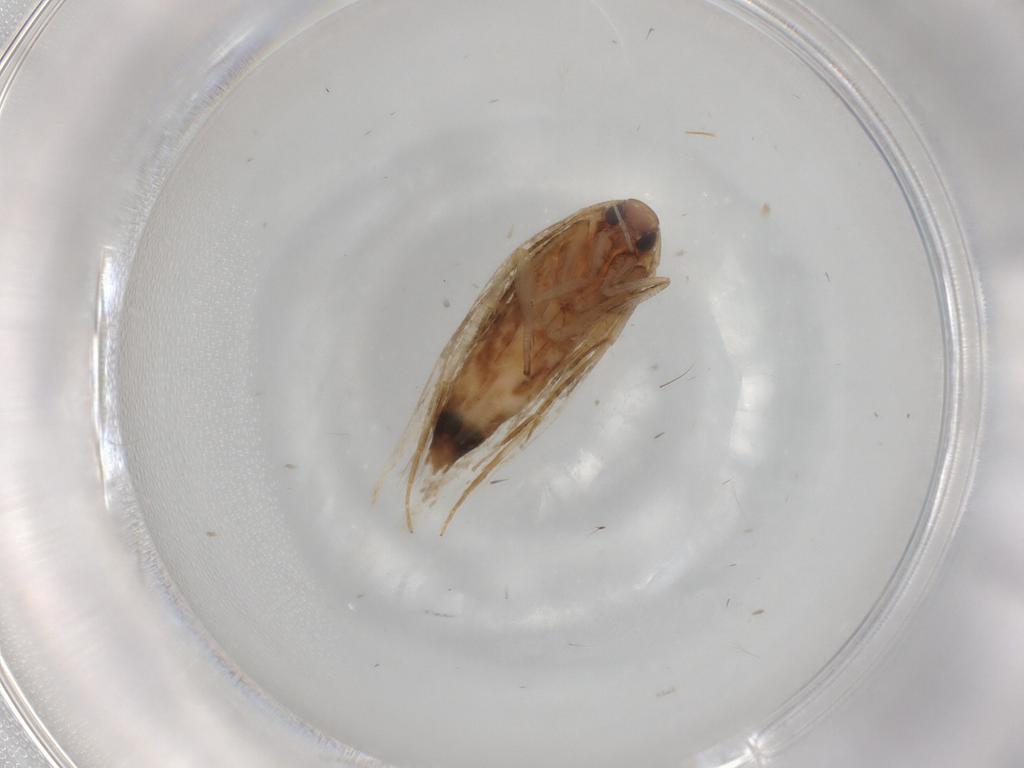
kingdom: Animalia
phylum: Arthropoda
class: Insecta
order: Lepidoptera
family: Cosmopterigidae
